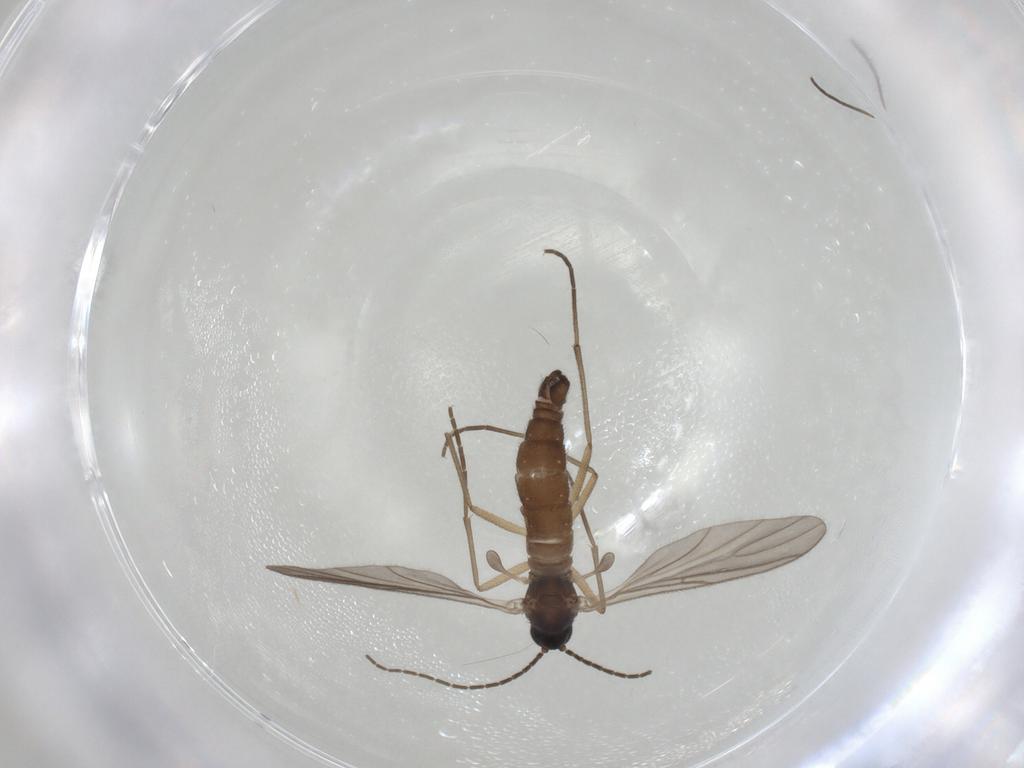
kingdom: Animalia
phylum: Arthropoda
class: Insecta
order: Diptera
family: Sciaridae
